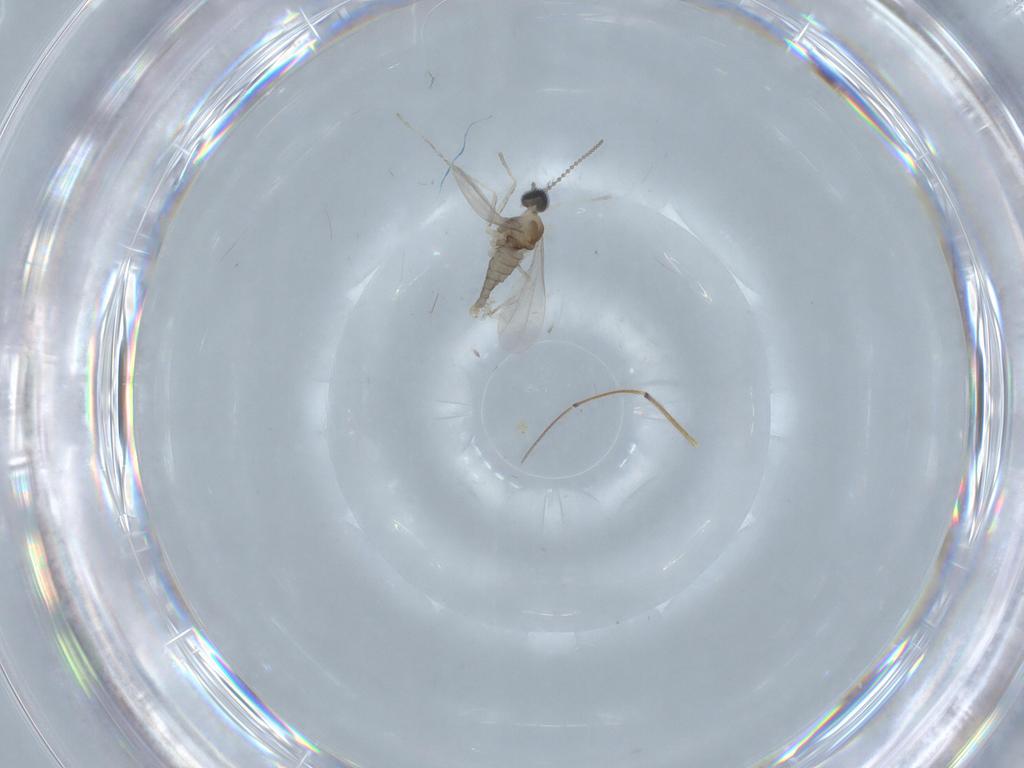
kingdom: Animalia
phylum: Arthropoda
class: Insecta
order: Diptera
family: Cecidomyiidae
